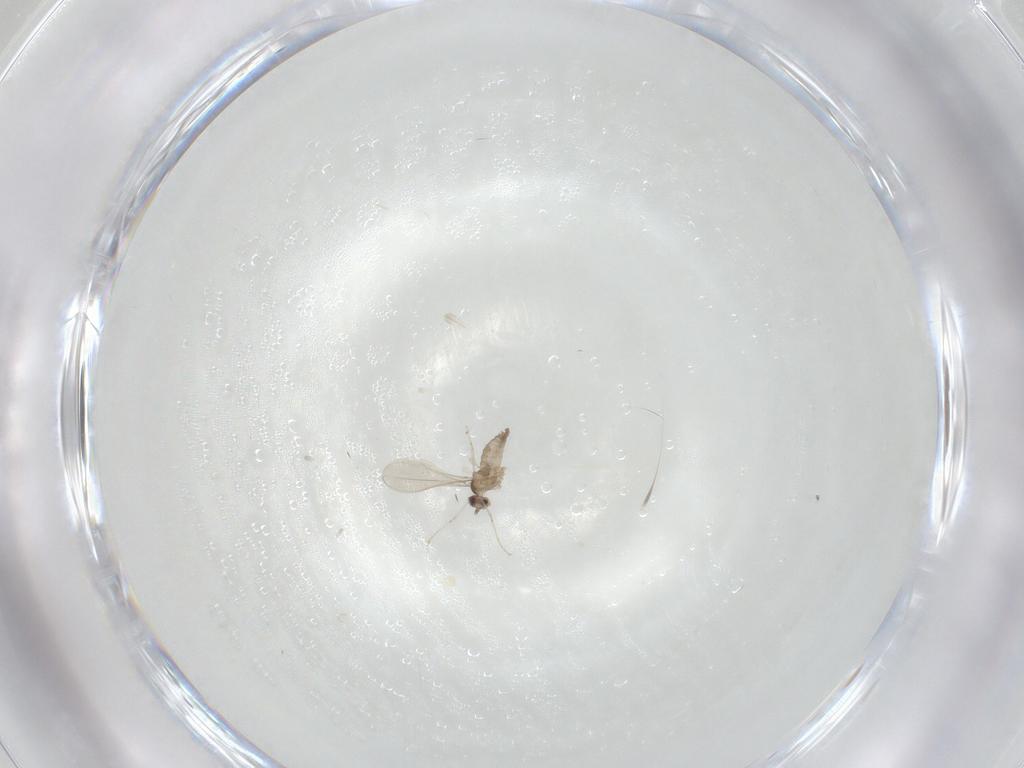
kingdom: Animalia
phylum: Arthropoda
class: Insecta
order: Diptera
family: Cecidomyiidae
